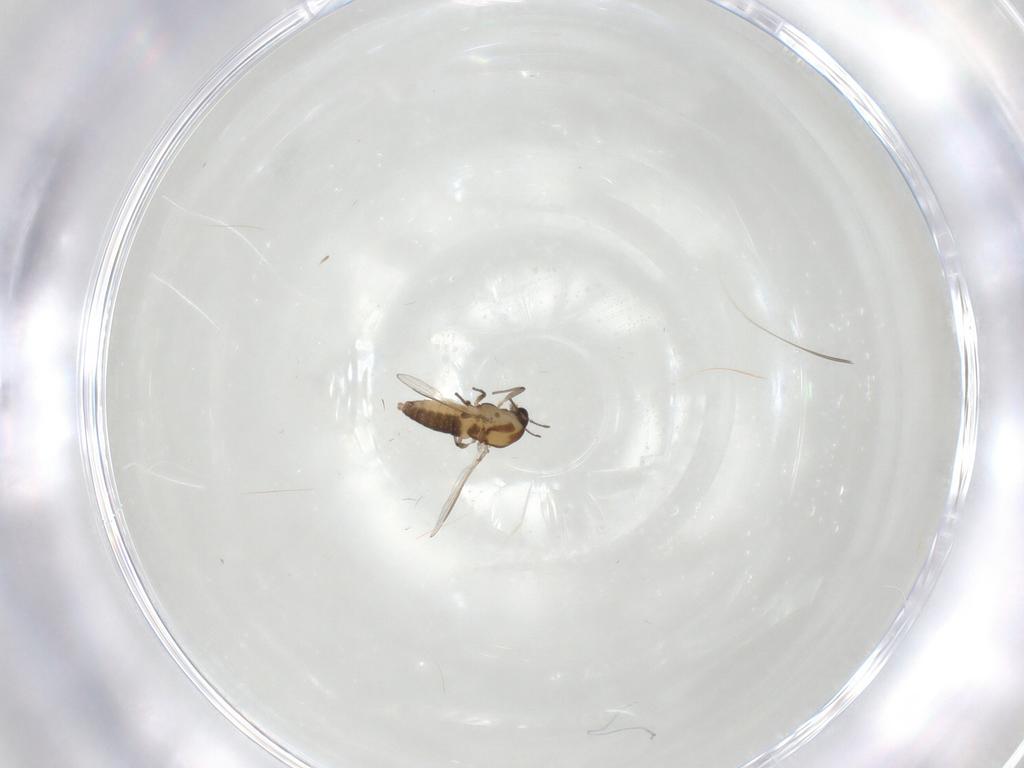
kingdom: Animalia
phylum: Arthropoda
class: Insecta
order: Diptera
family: Chironomidae
